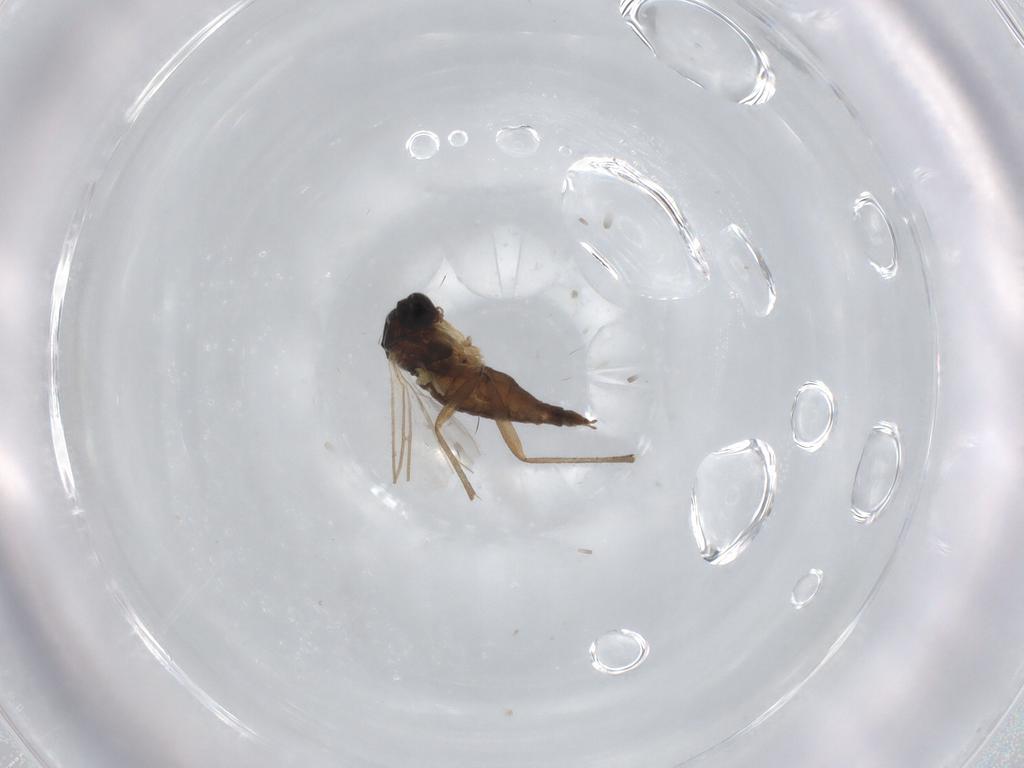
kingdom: Animalia
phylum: Arthropoda
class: Insecta
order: Diptera
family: Sciaridae
